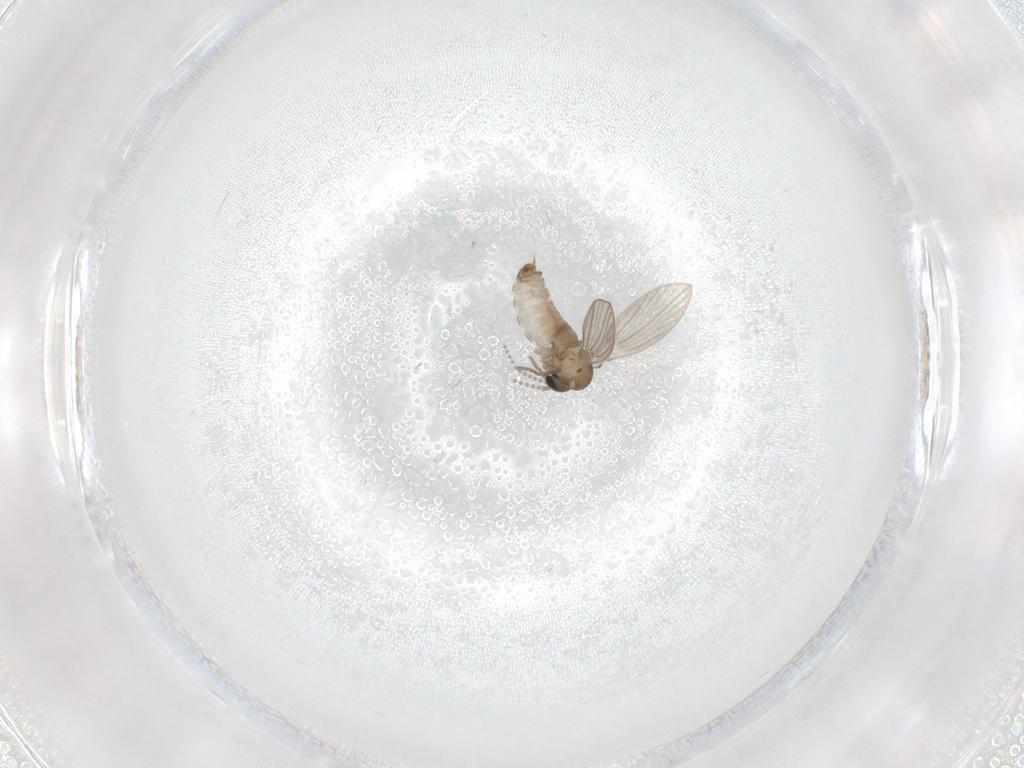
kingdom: Animalia
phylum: Arthropoda
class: Insecta
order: Diptera
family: Ceratopogonidae
